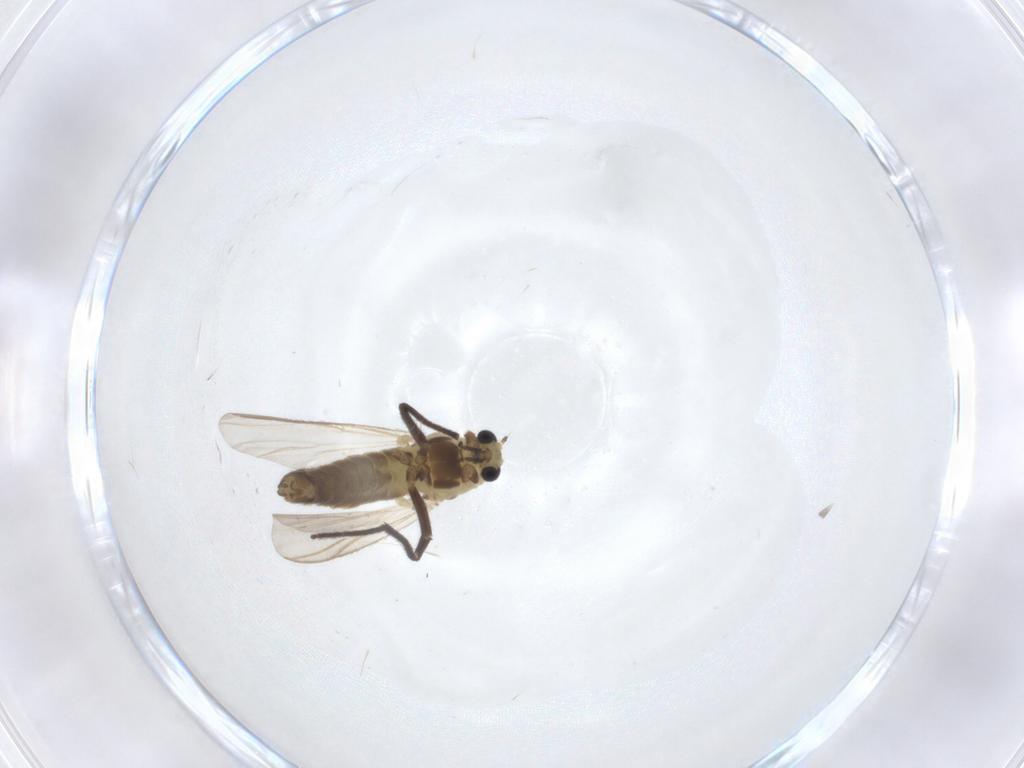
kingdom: Animalia
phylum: Arthropoda
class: Insecta
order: Diptera
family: Chironomidae
